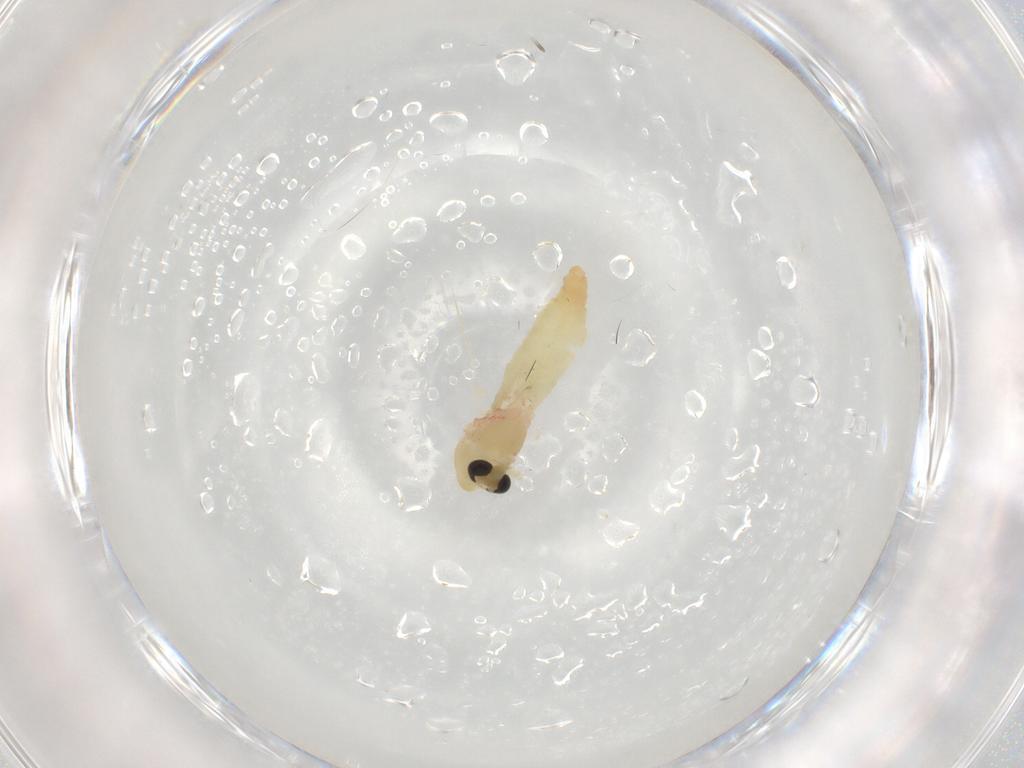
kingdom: Animalia
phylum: Arthropoda
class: Insecta
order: Diptera
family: Chironomidae
